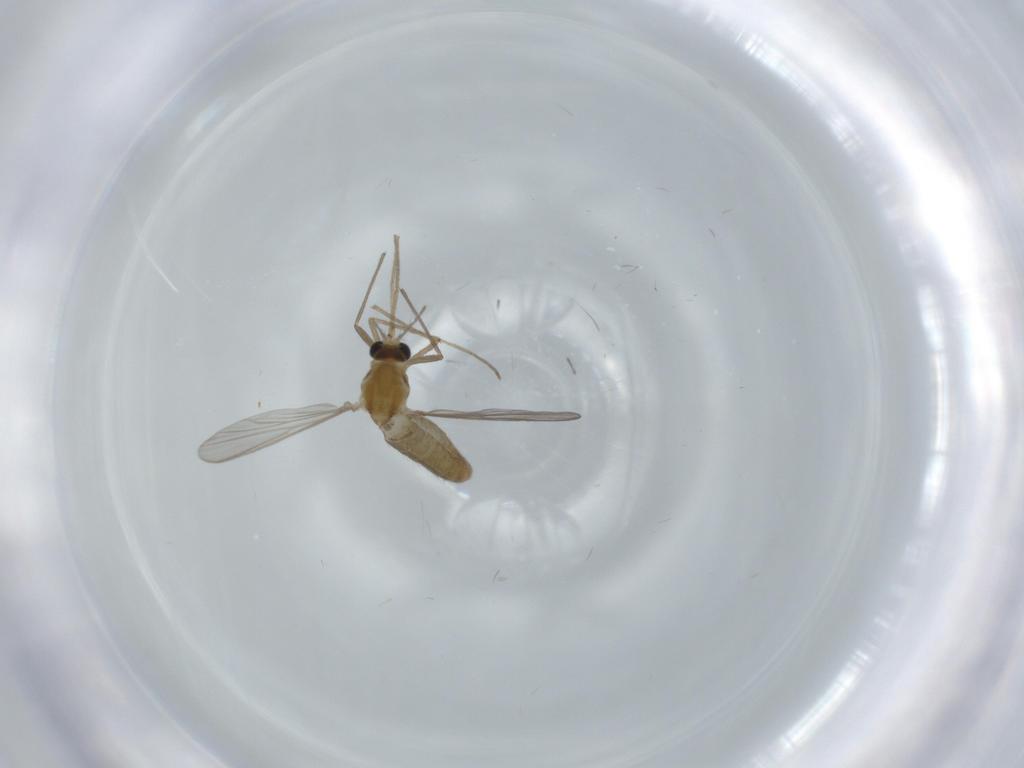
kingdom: Animalia
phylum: Arthropoda
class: Insecta
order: Diptera
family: Chironomidae
